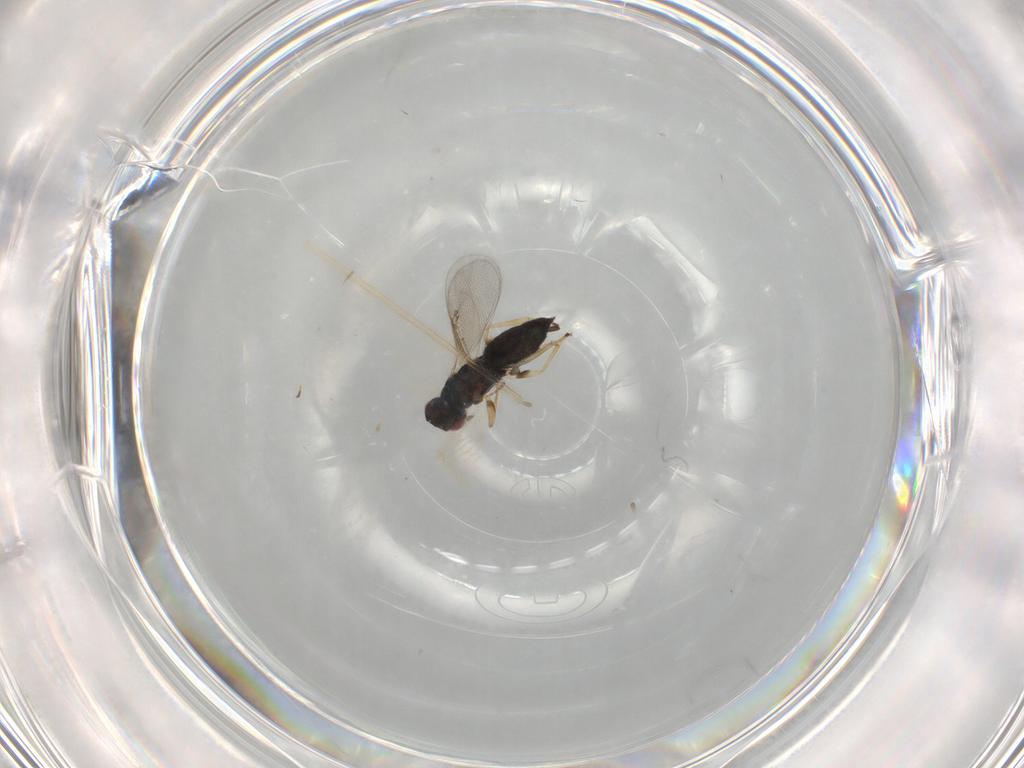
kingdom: Animalia
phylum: Arthropoda
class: Insecta
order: Hymenoptera
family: Eulophidae
